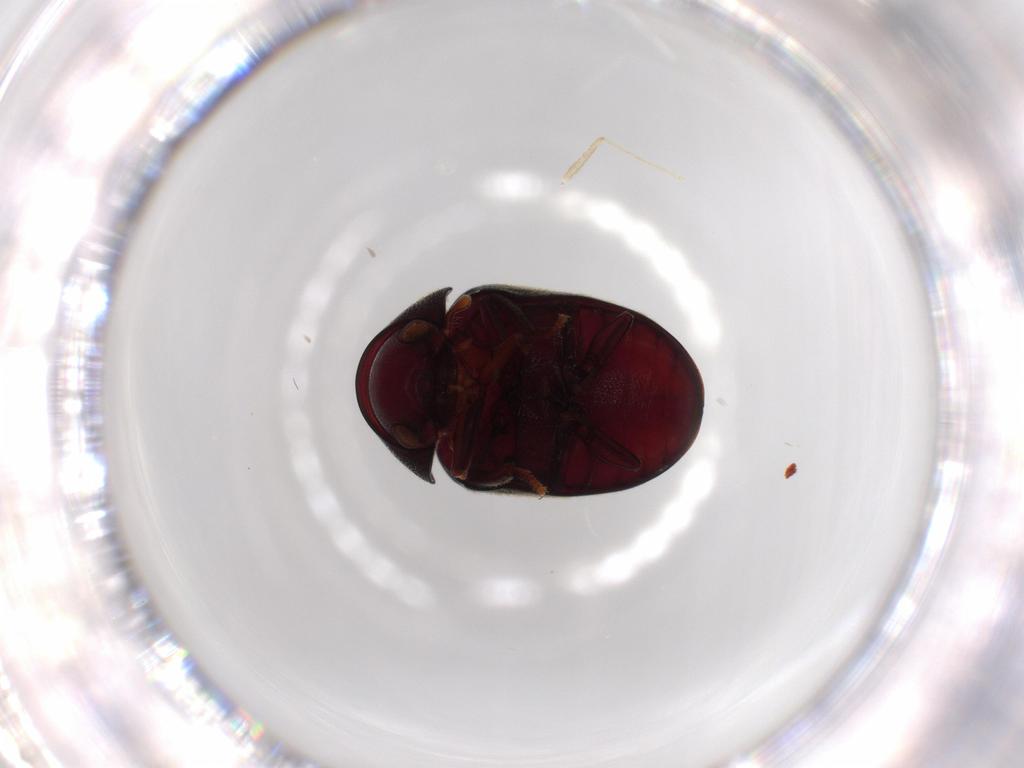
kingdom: Animalia
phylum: Arthropoda
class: Insecta
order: Coleoptera
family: Ptinidae
